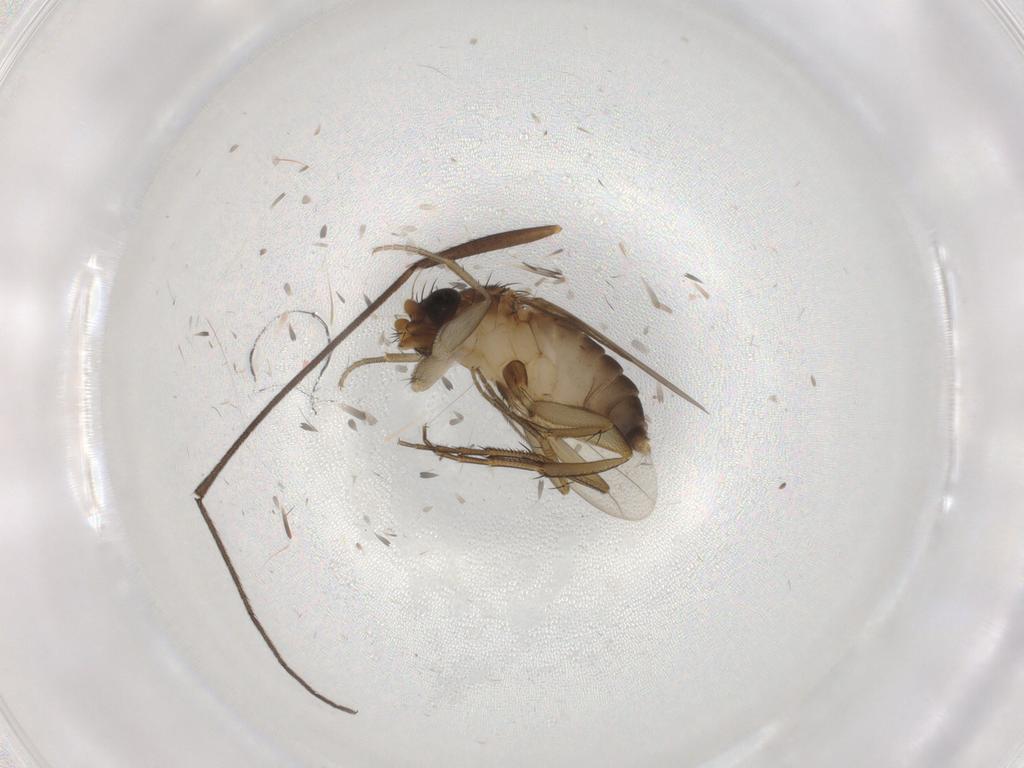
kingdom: Animalia
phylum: Arthropoda
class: Insecta
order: Diptera
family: Keroplatidae
